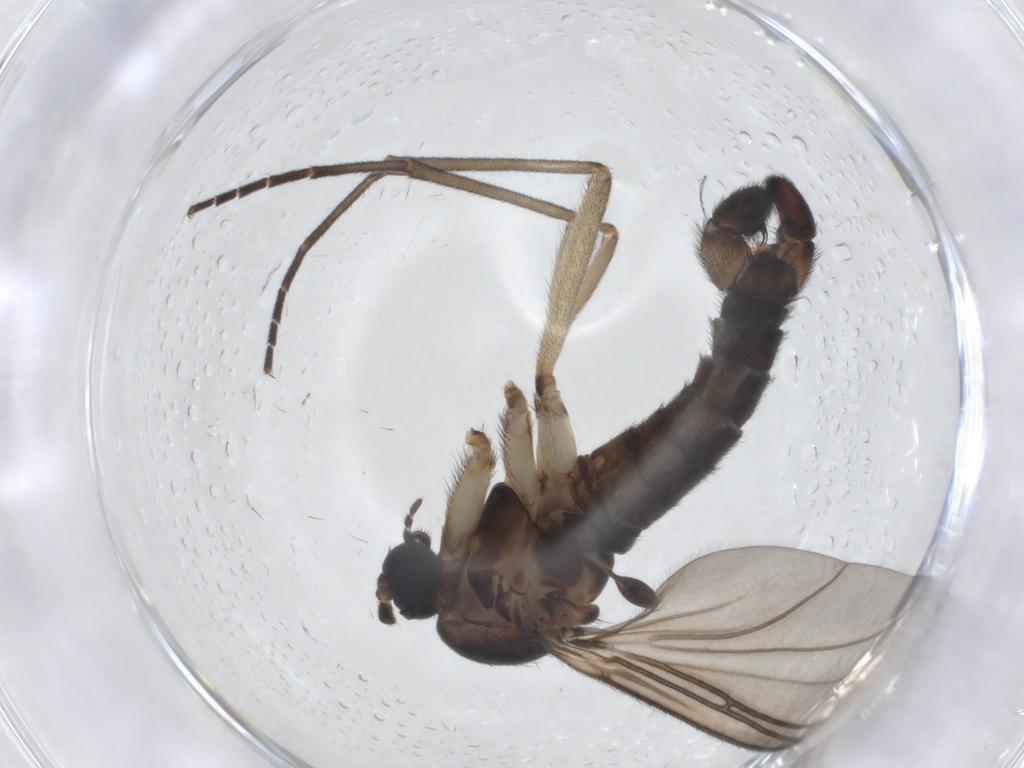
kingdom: Animalia
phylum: Arthropoda
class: Insecta
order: Diptera
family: Sciaridae
